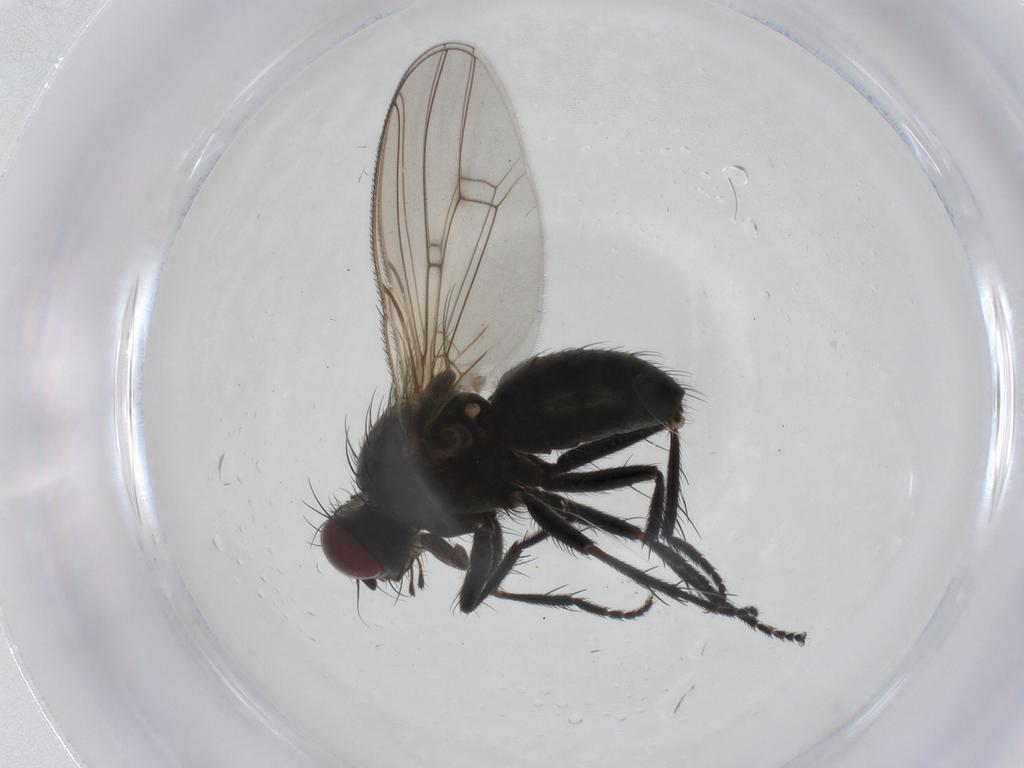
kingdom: Animalia
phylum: Arthropoda
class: Insecta
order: Diptera
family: Muscidae
